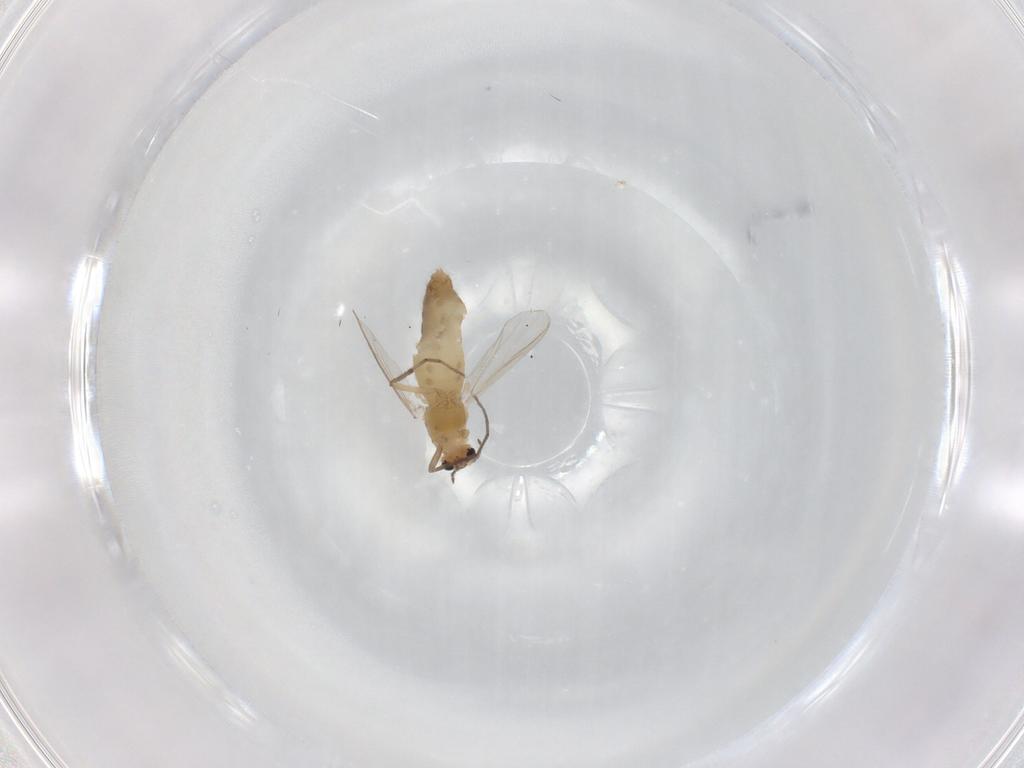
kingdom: Animalia
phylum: Arthropoda
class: Insecta
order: Diptera
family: Chironomidae
